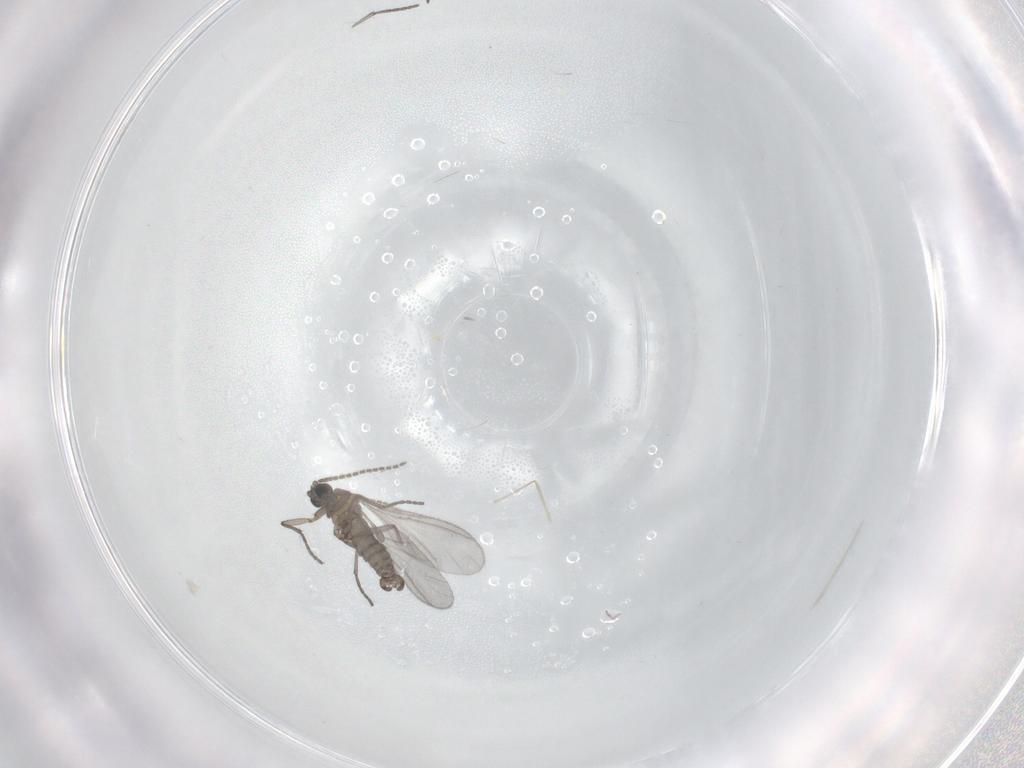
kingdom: Animalia
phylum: Arthropoda
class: Insecta
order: Diptera
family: Sciaridae
